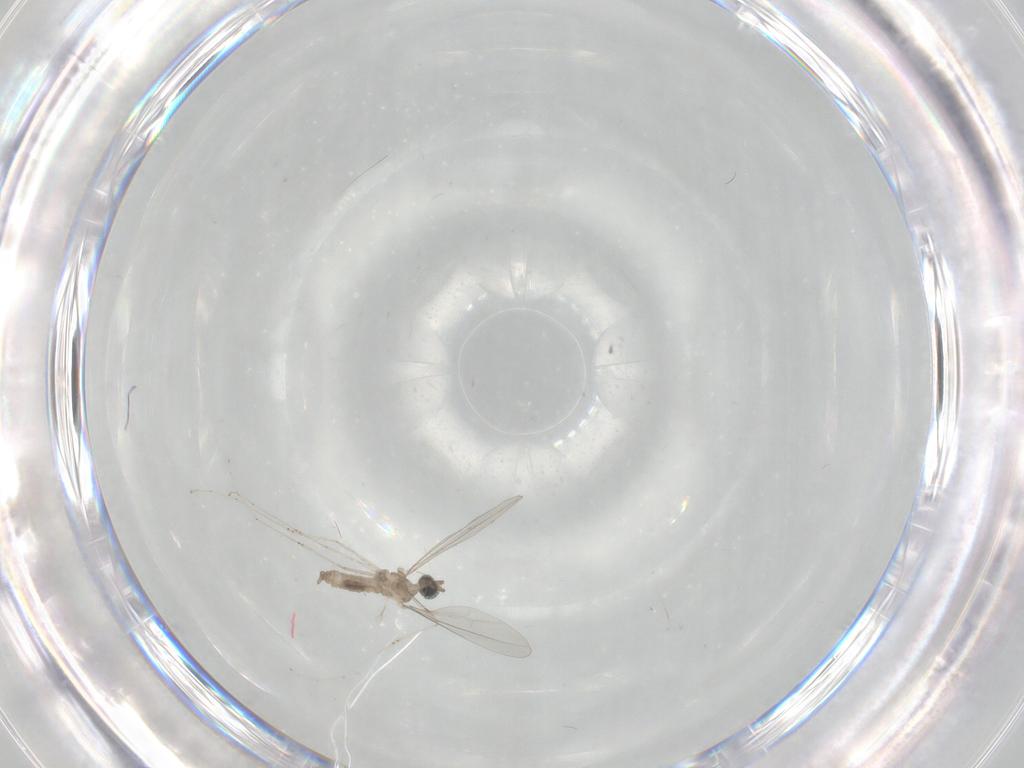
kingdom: Animalia
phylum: Arthropoda
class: Insecta
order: Diptera
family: Cecidomyiidae
